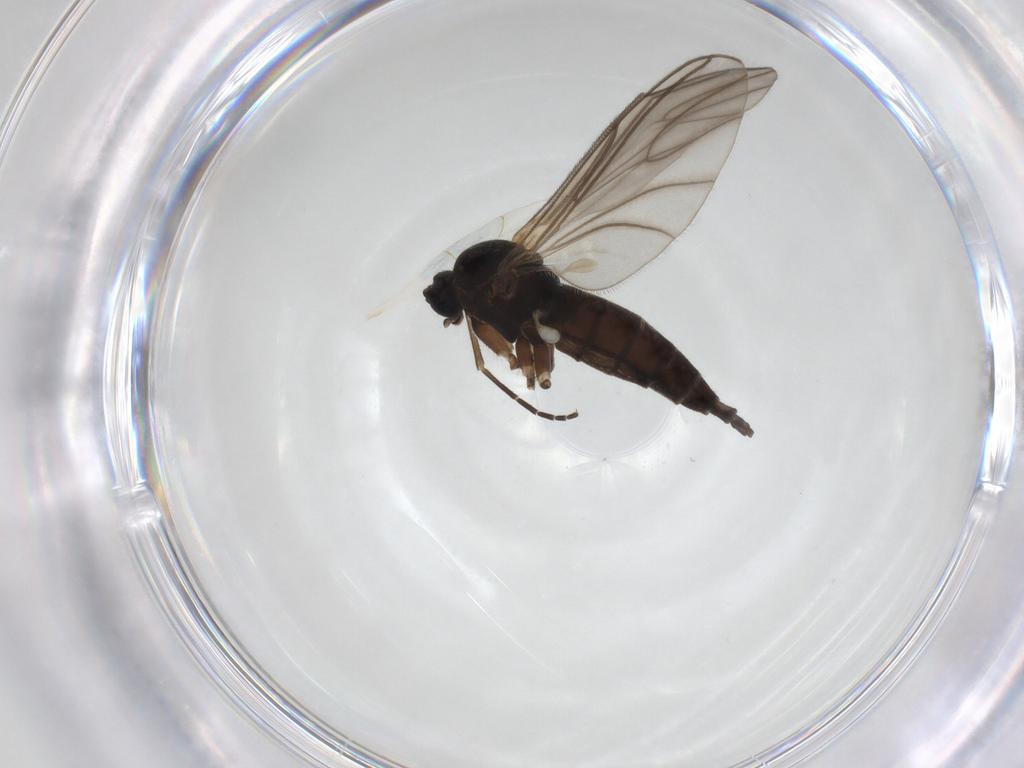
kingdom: Animalia
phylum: Arthropoda
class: Insecta
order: Diptera
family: Sciaridae
